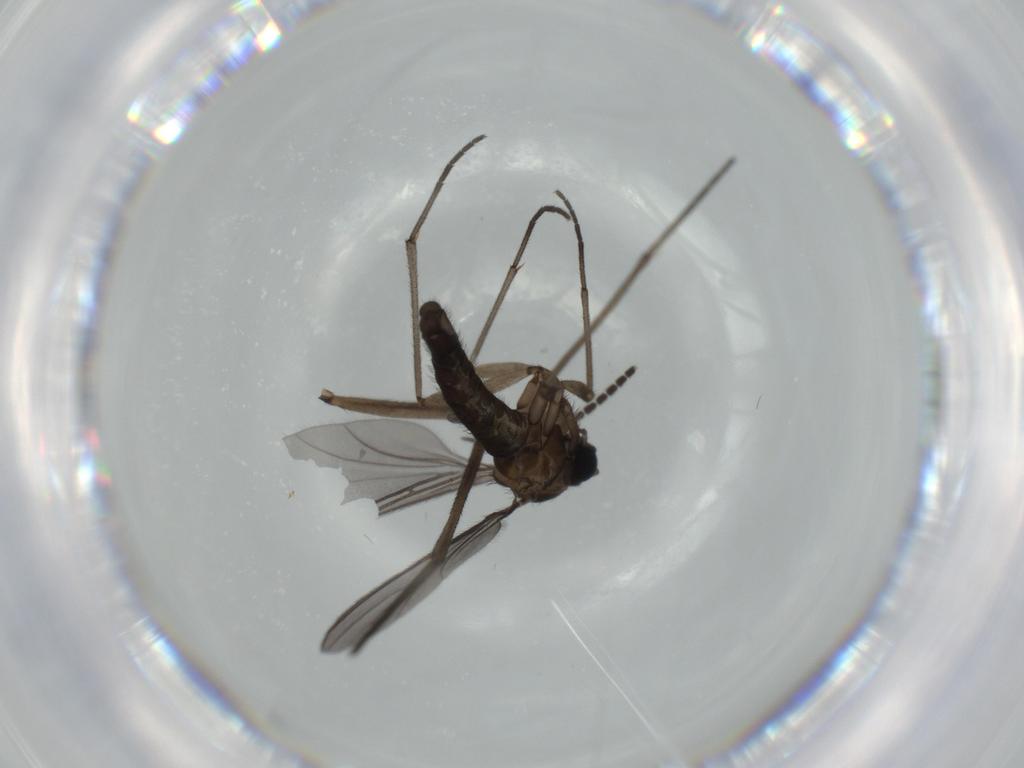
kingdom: Animalia
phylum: Arthropoda
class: Insecta
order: Diptera
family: Sciaridae
